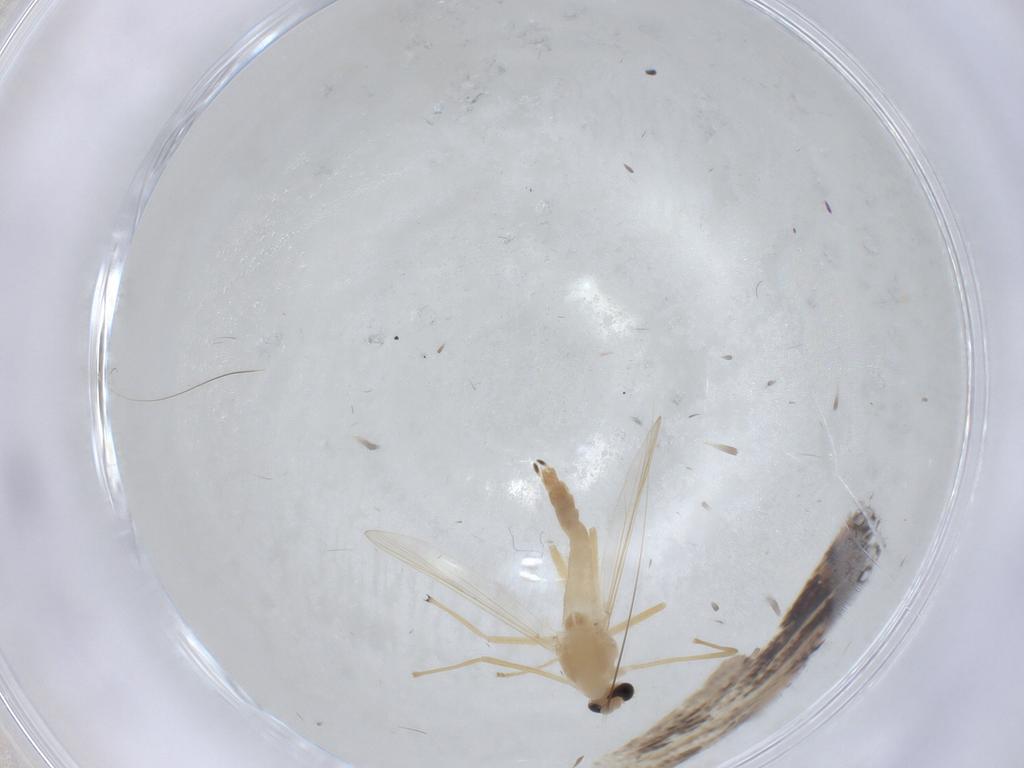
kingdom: Animalia
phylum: Arthropoda
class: Insecta
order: Diptera
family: Chironomidae
